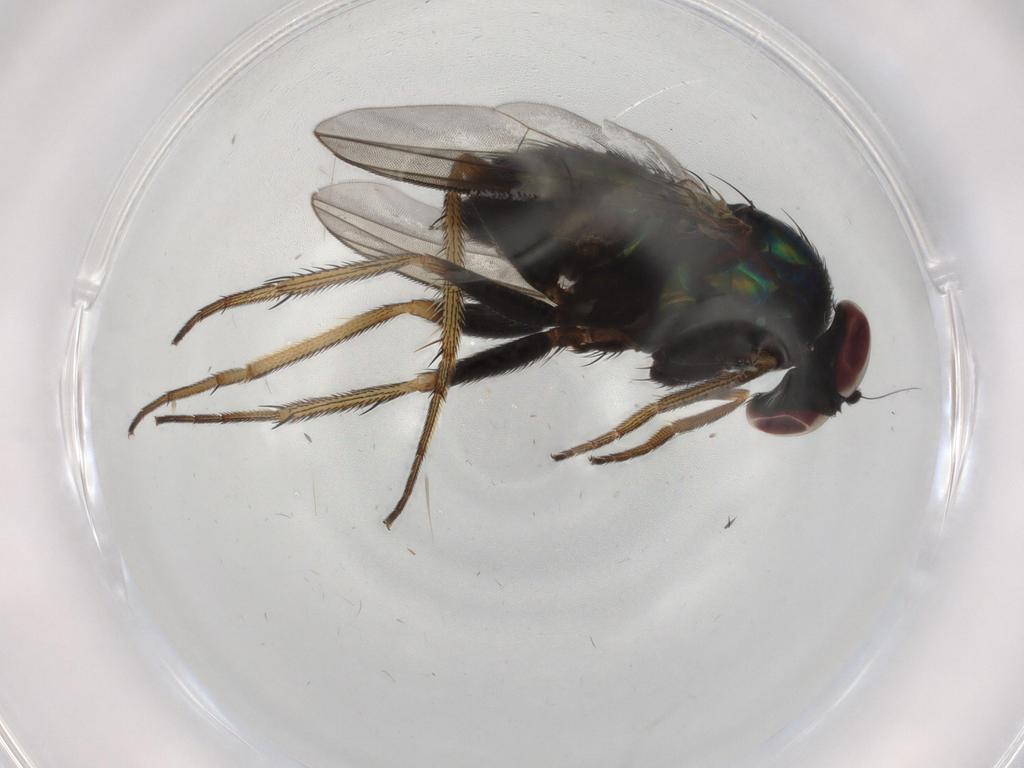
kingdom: Animalia
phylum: Arthropoda
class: Insecta
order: Diptera
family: Dolichopodidae
